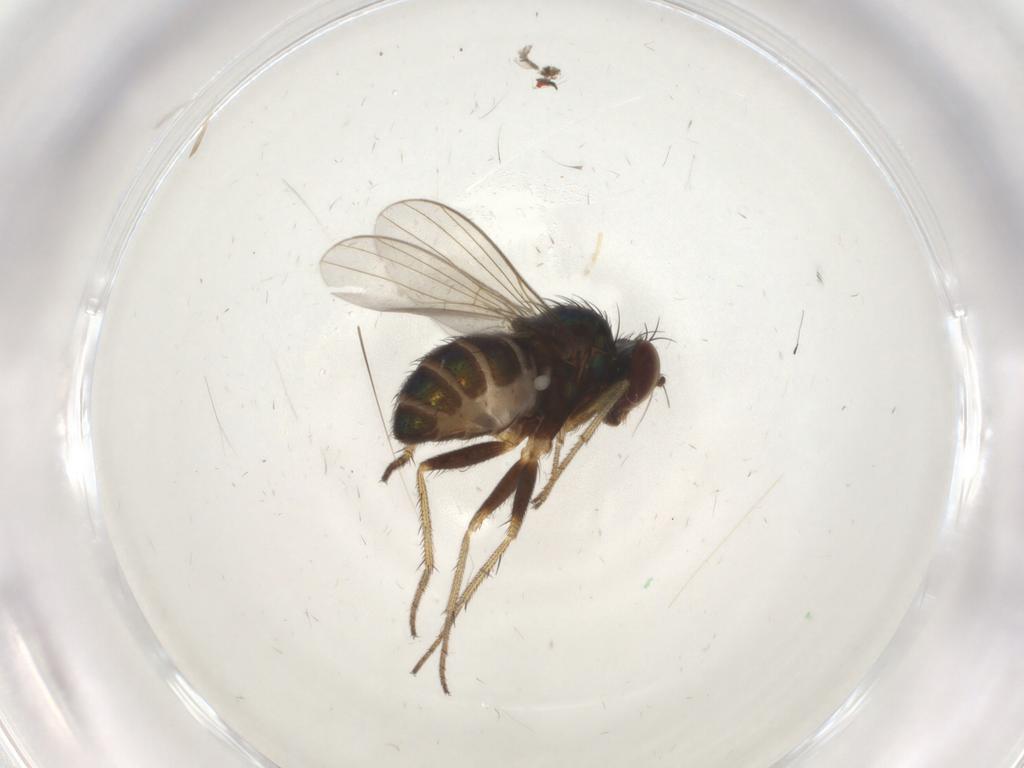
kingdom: Animalia
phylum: Arthropoda
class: Insecta
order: Diptera
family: Dolichopodidae
